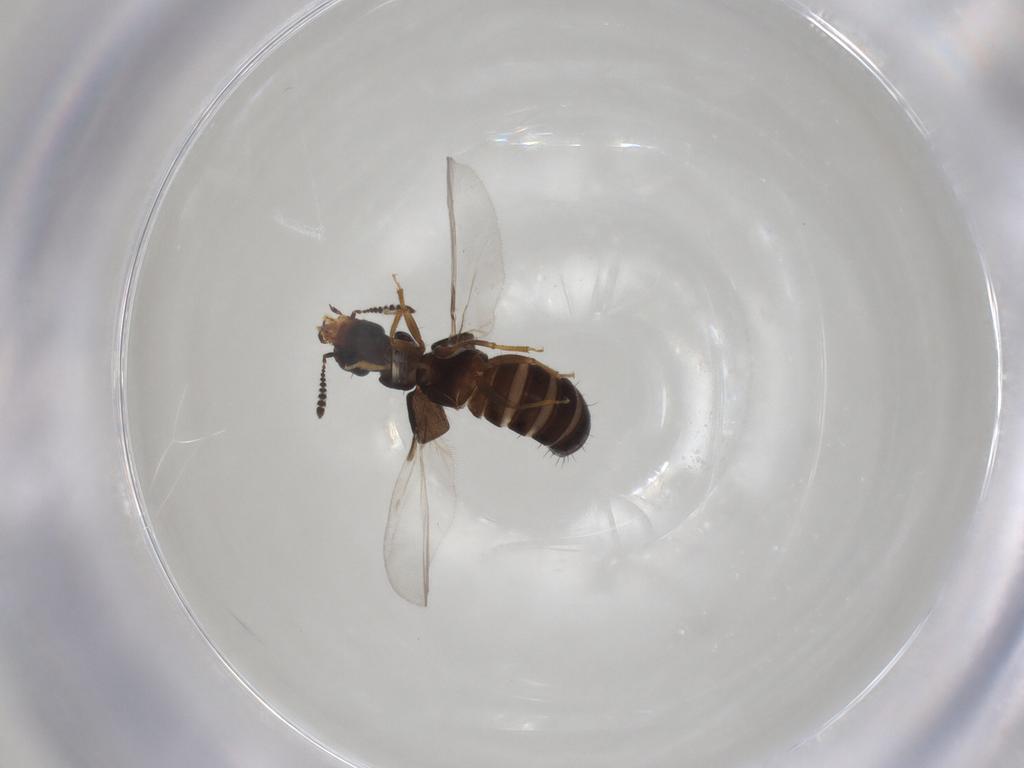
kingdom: Animalia
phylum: Arthropoda
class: Insecta
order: Coleoptera
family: Staphylinidae
